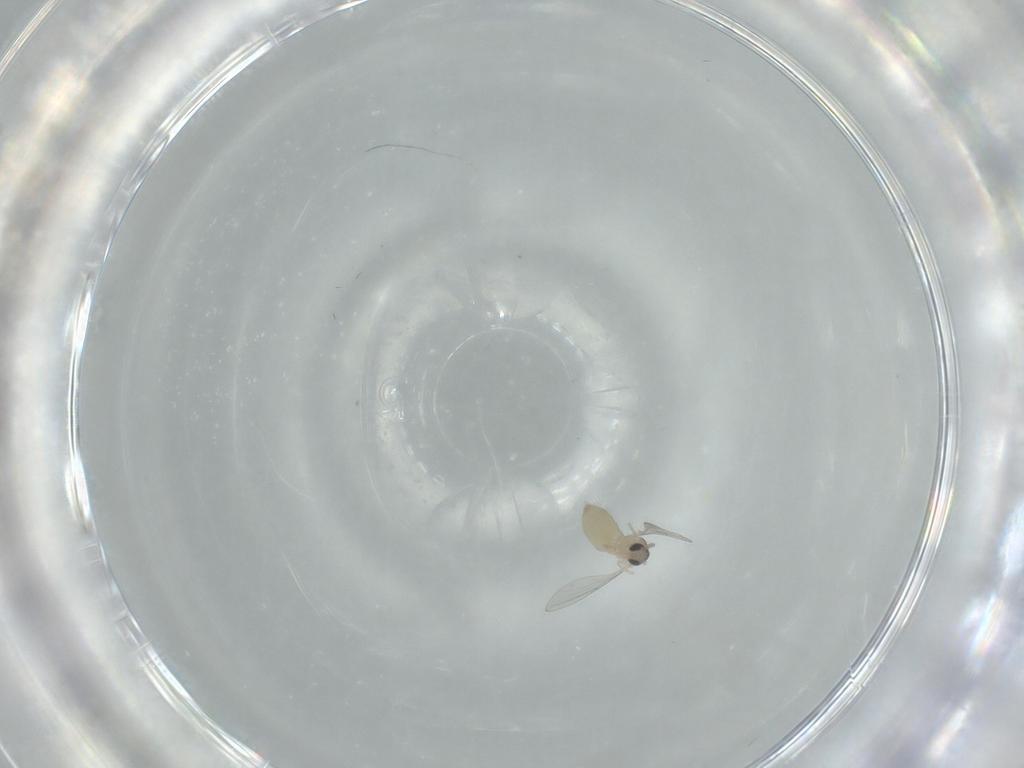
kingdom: Animalia
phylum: Arthropoda
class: Insecta
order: Diptera
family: Cecidomyiidae
